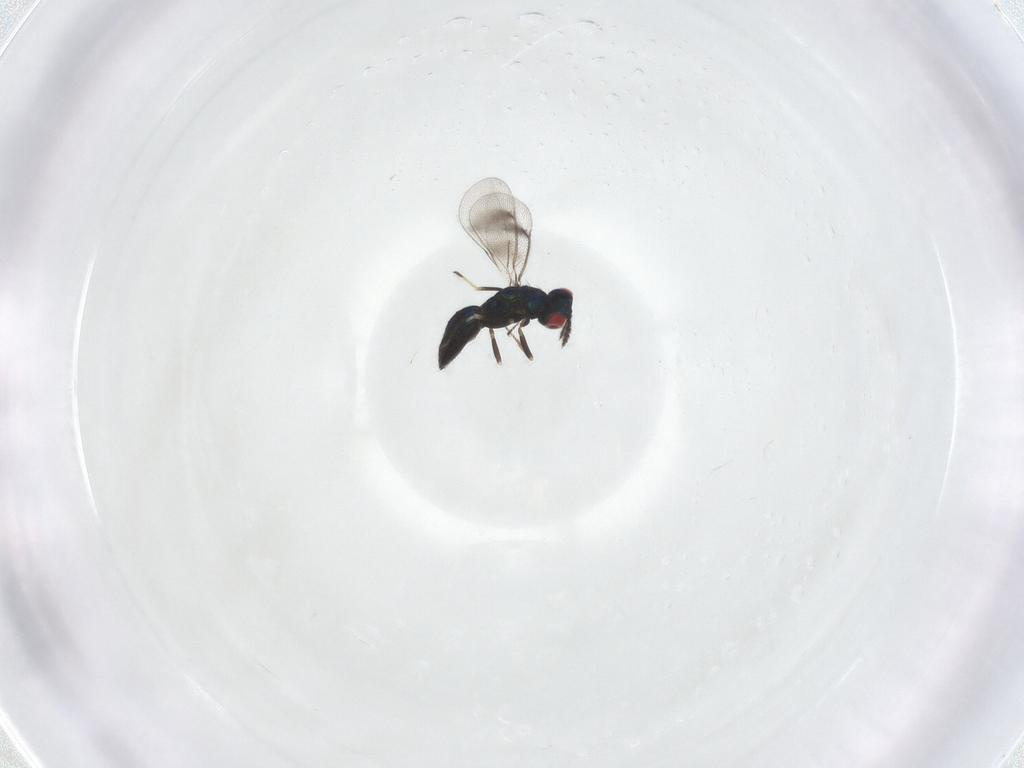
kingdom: Animalia
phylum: Arthropoda
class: Insecta
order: Hymenoptera
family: Eulophidae
